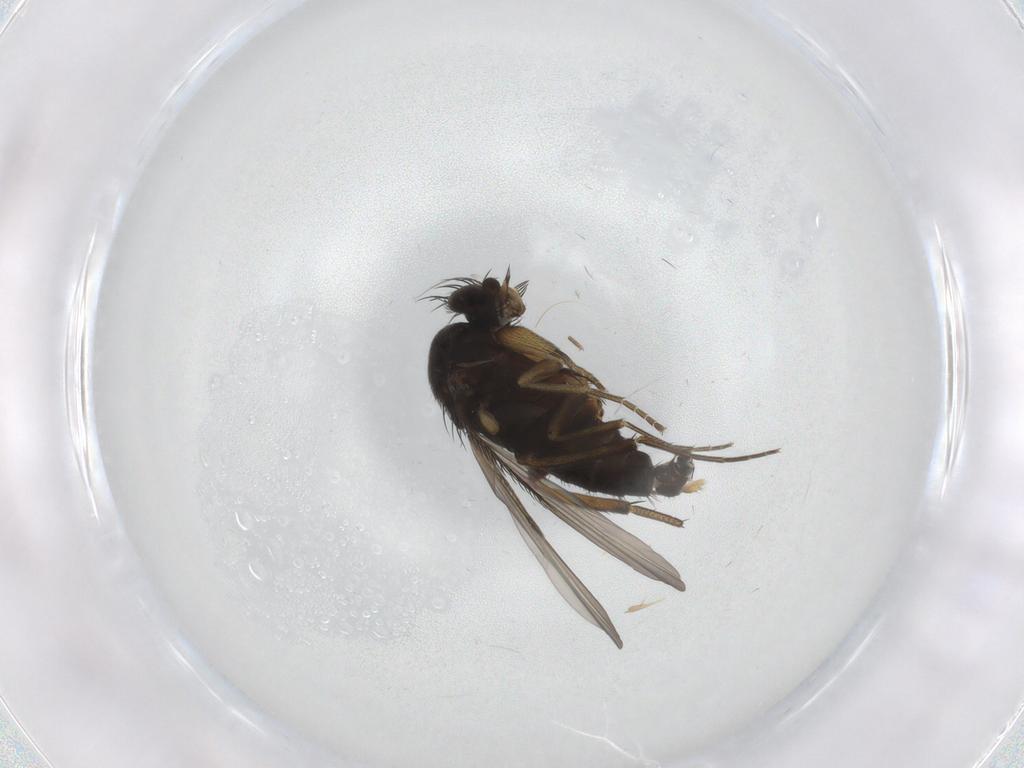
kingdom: Animalia
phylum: Arthropoda
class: Insecta
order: Diptera
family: Phoridae
